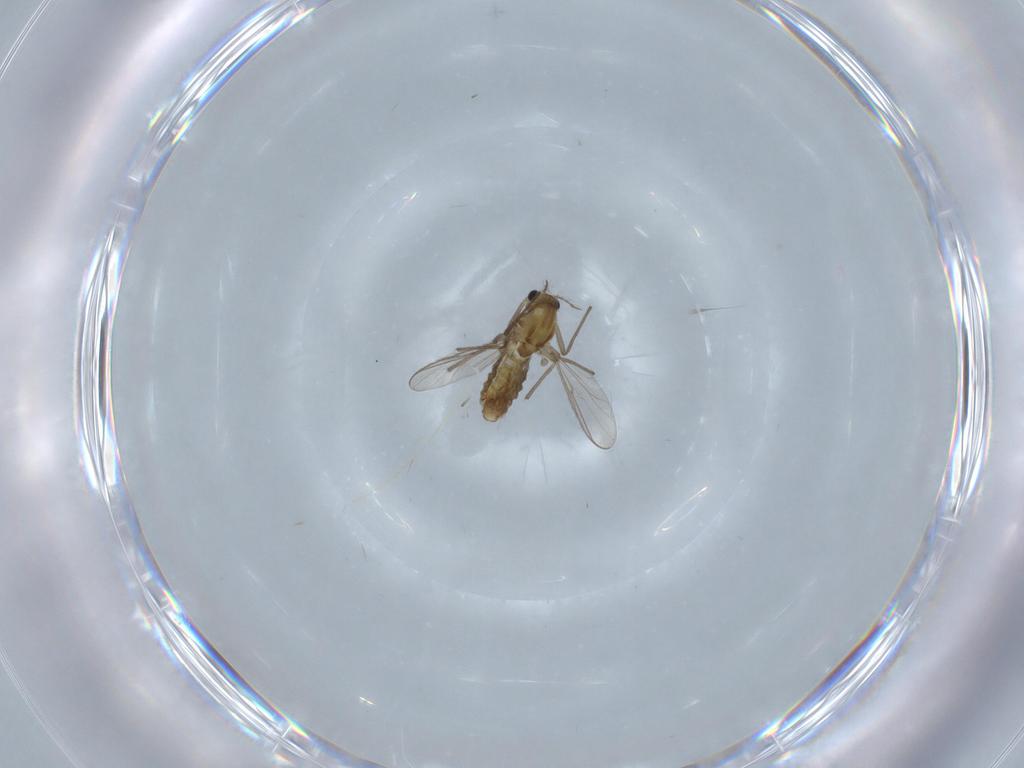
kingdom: Animalia
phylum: Arthropoda
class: Insecta
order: Diptera
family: Chironomidae
